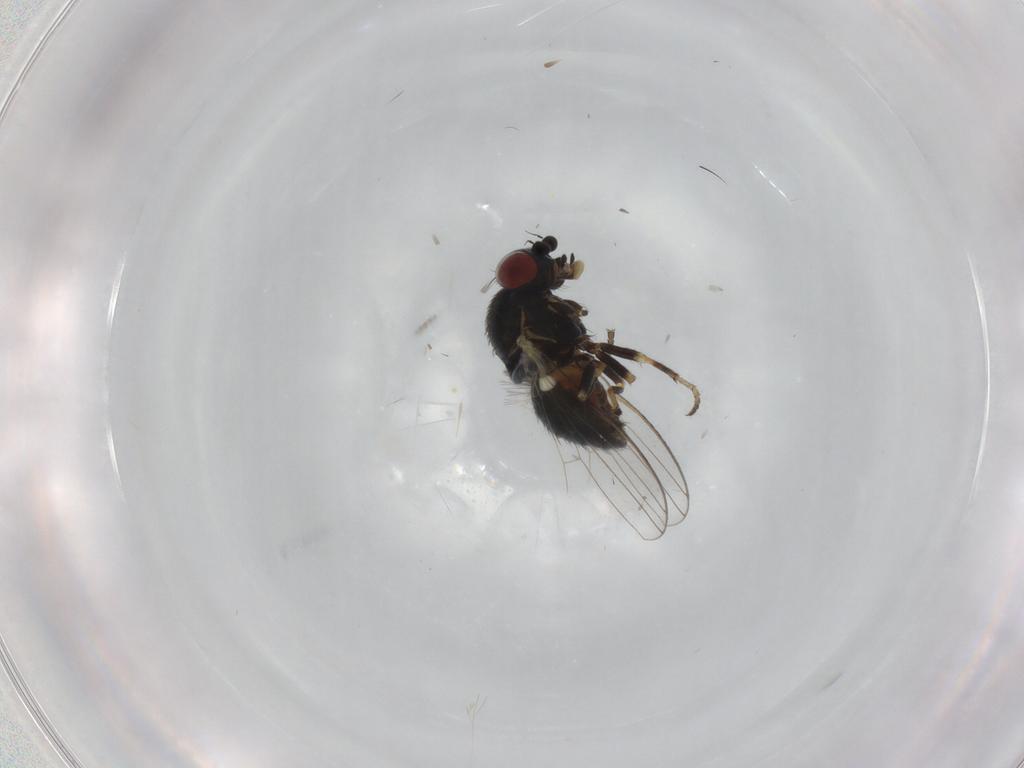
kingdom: Animalia
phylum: Arthropoda
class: Insecta
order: Diptera
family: Chamaemyiidae
